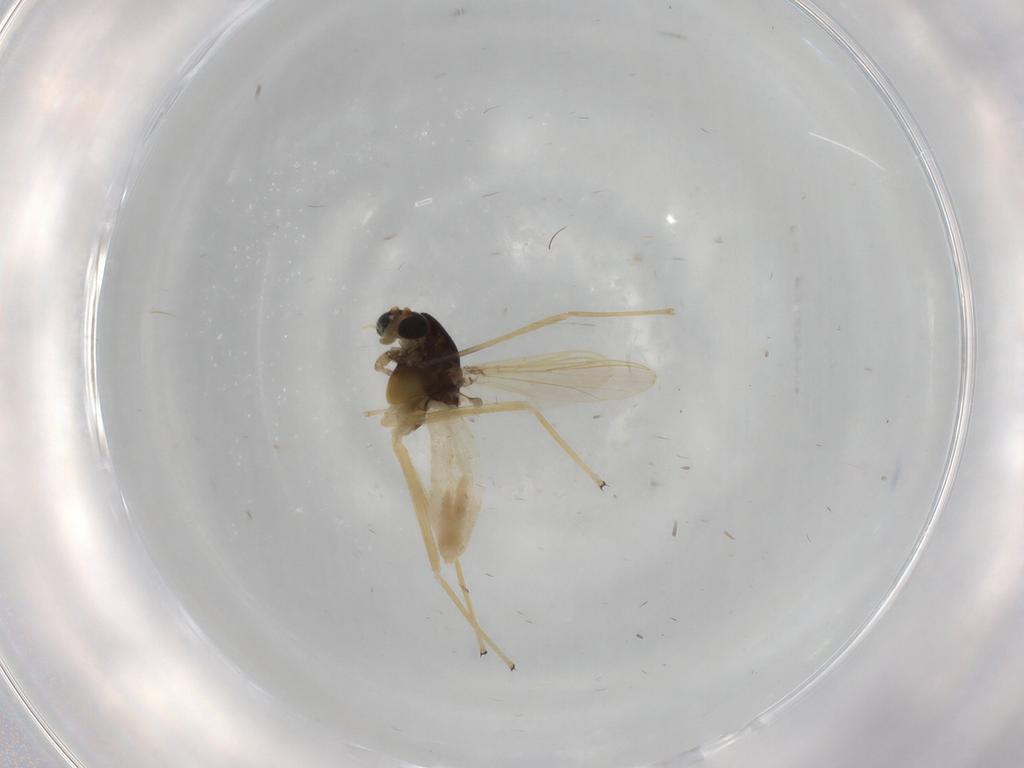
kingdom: Animalia
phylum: Arthropoda
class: Insecta
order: Diptera
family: Chironomidae
